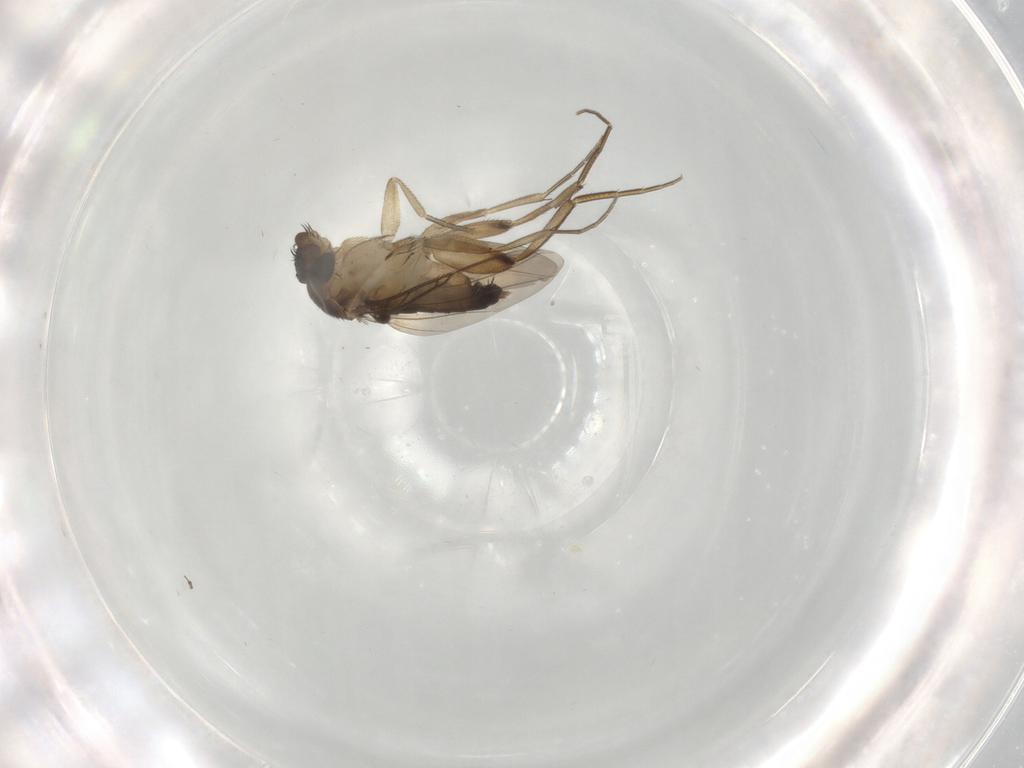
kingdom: Animalia
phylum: Arthropoda
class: Insecta
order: Diptera
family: Phoridae
